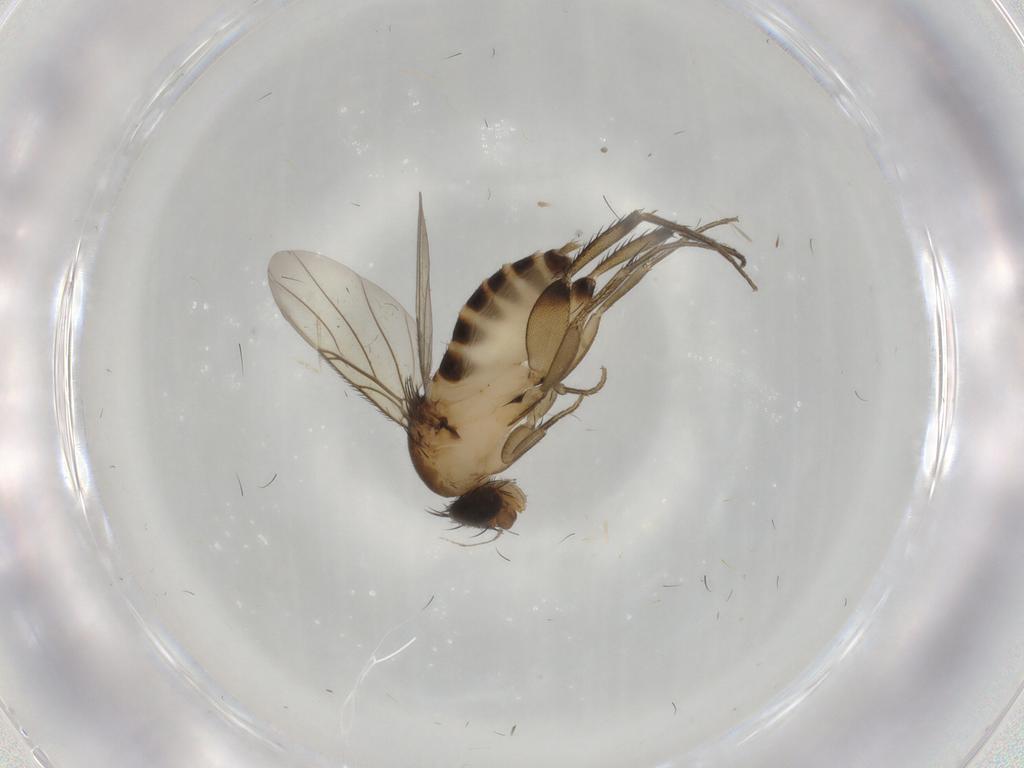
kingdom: Animalia
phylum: Arthropoda
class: Insecta
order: Diptera
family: Phoridae
